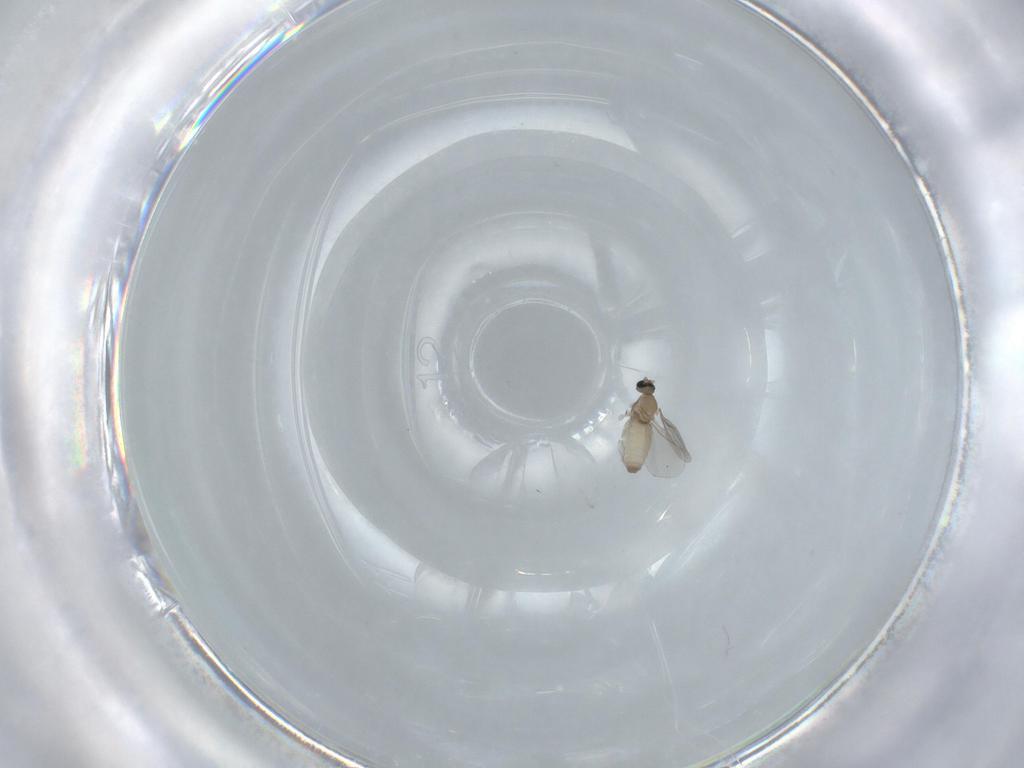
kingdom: Animalia
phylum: Arthropoda
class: Insecta
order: Diptera
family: Cecidomyiidae
